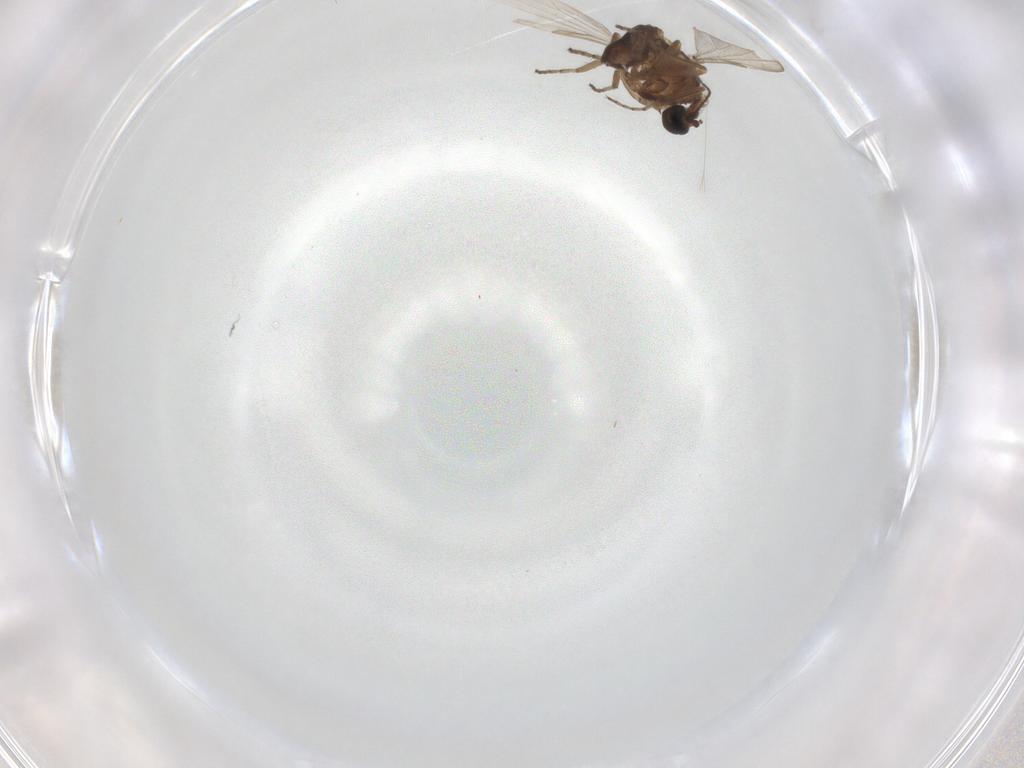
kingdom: Animalia
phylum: Arthropoda
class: Insecta
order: Diptera
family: Ceratopogonidae
